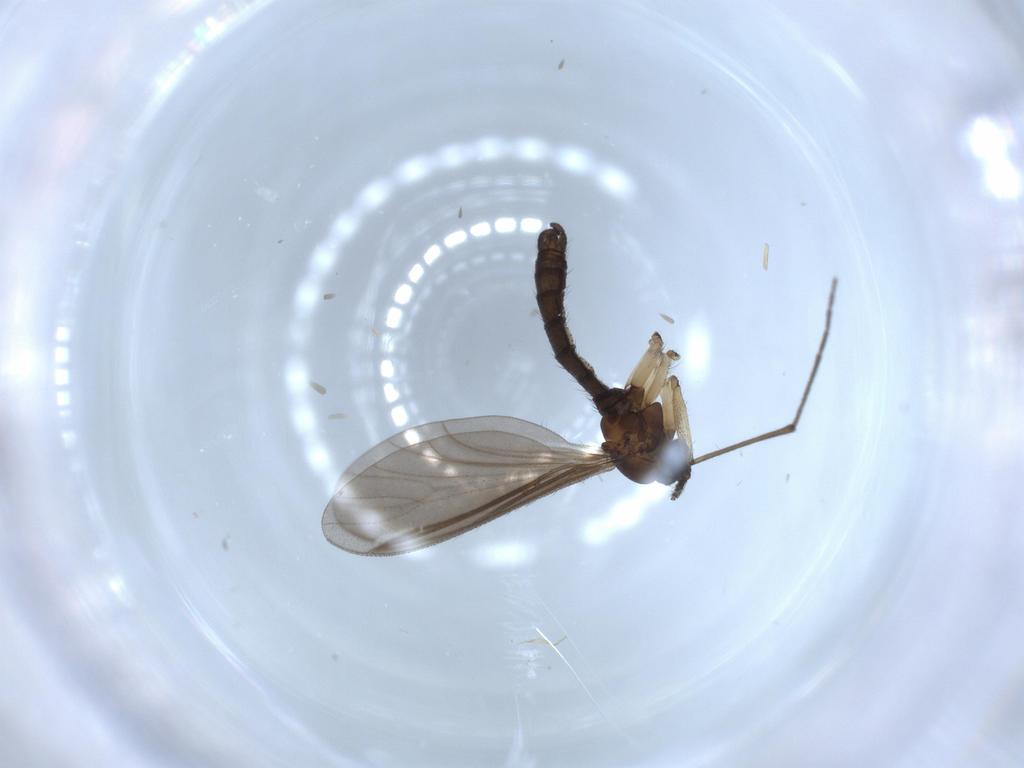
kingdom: Animalia
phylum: Arthropoda
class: Insecta
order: Diptera
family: Sciaridae
